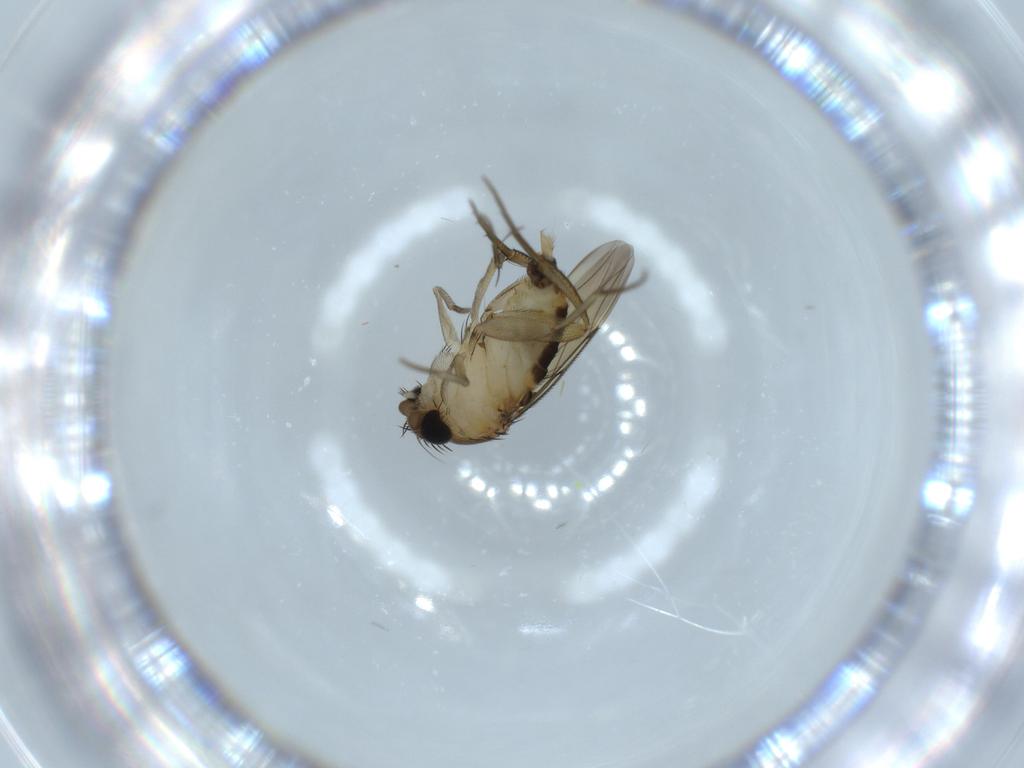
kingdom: Animalia
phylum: Arthropoda
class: Insecta
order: Diptera
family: Phoridae
